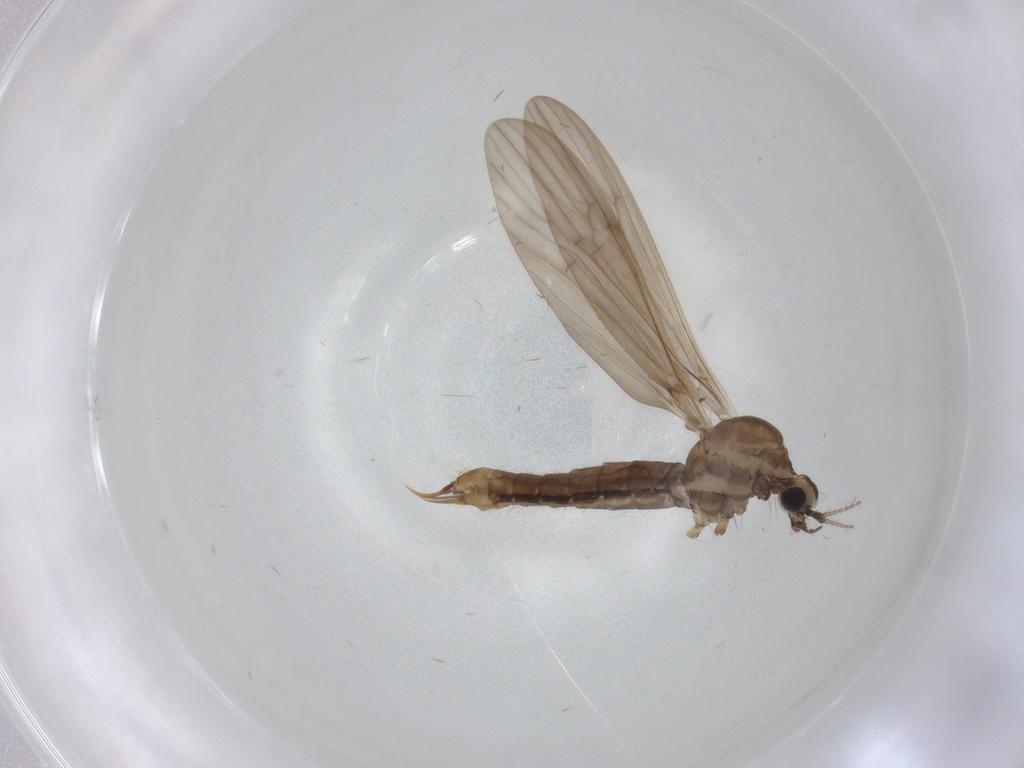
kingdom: Animalia
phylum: Arthropoda
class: Insecta
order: Diptera
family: Limoniidae
